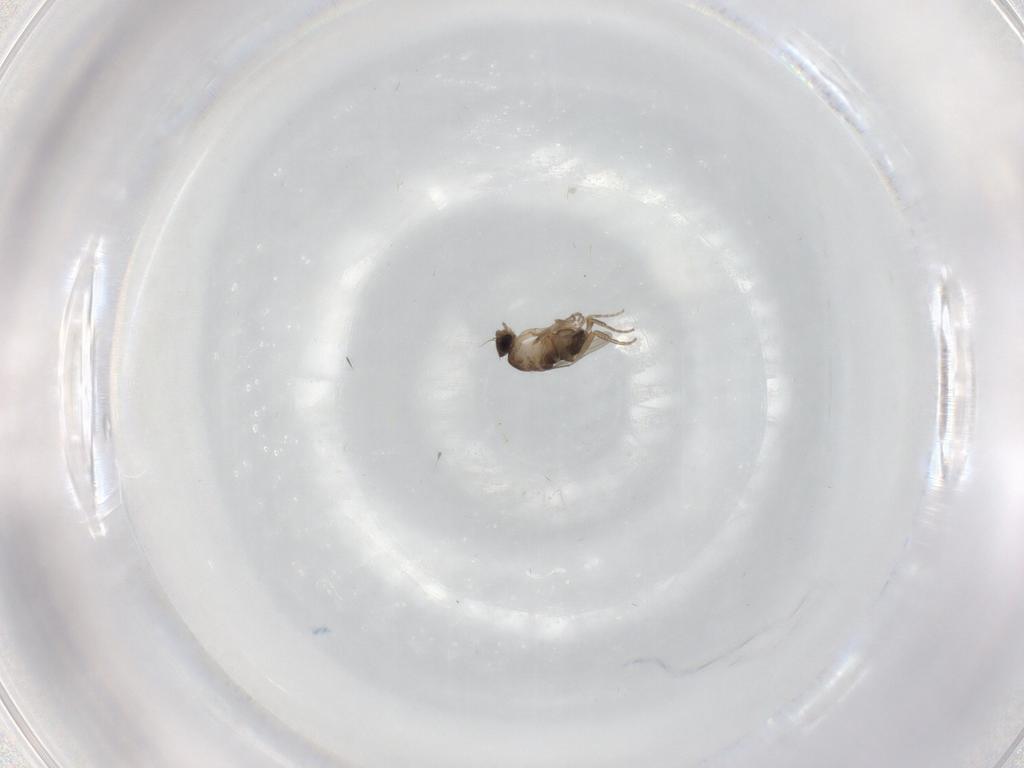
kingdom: Animalia
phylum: Arthropoda
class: Insecta
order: Diptera
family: Phoridae
